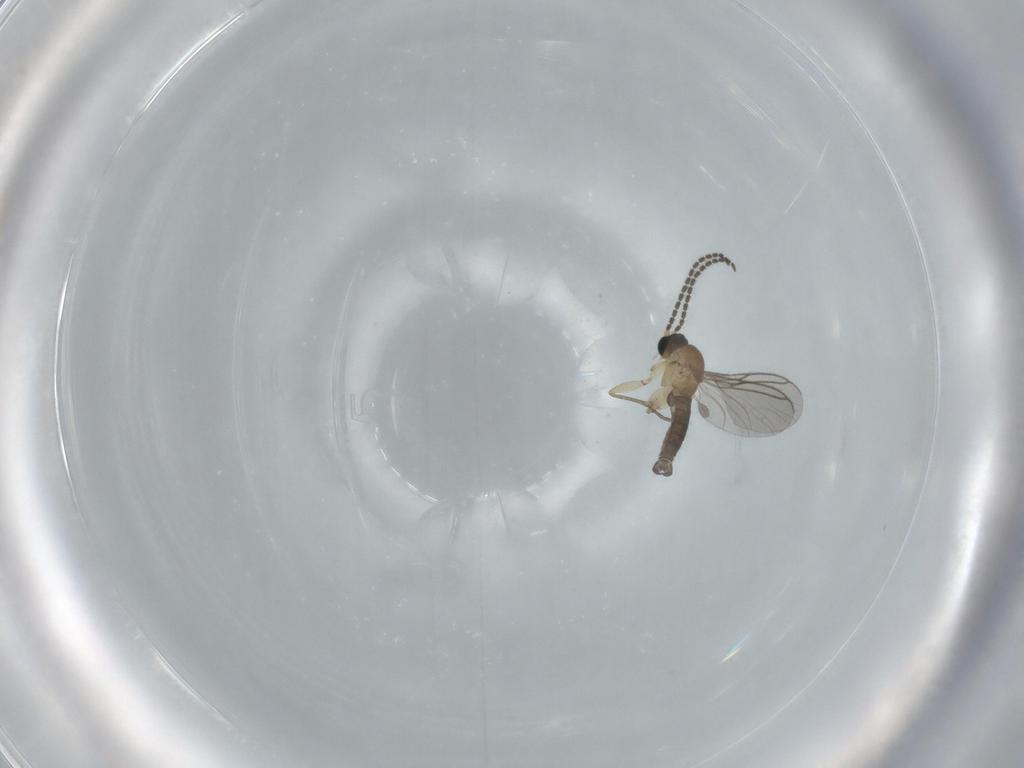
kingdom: Animalia
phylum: Arthropoda
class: Insecta
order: Diptera
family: Sciaridae
